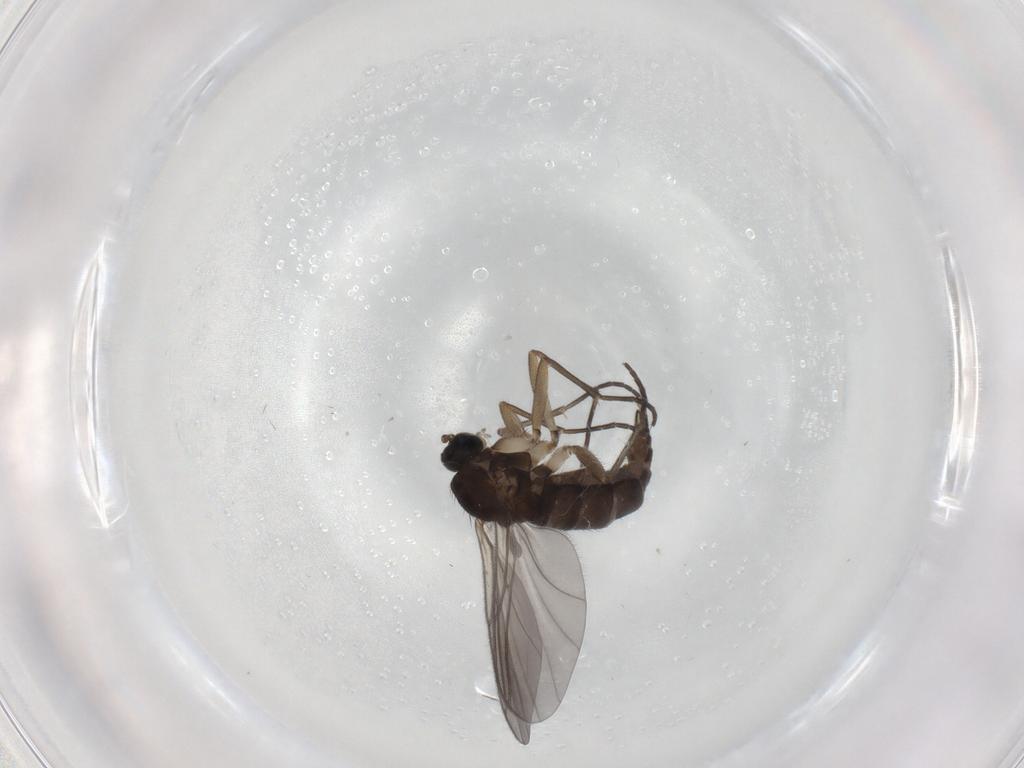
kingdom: Animalia
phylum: Arthropoda
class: Insecta
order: Diptera
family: Sciaridae
